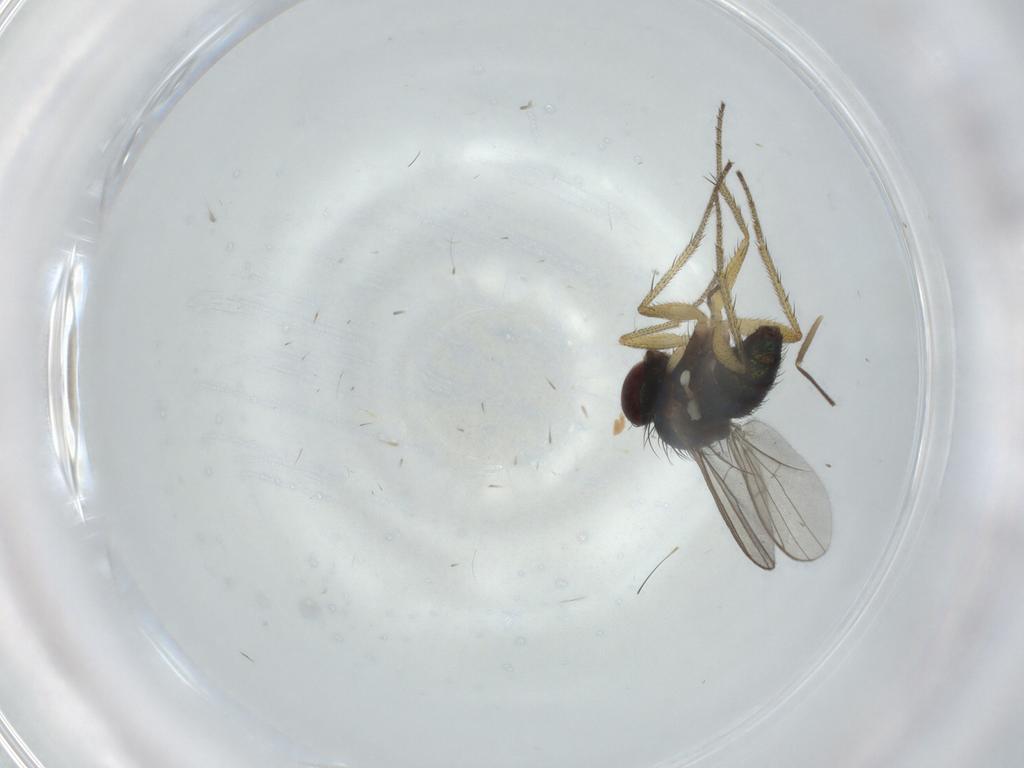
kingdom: Animalia
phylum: Arthropoda
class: Insecta
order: Diptera
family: Dolichopodidae
